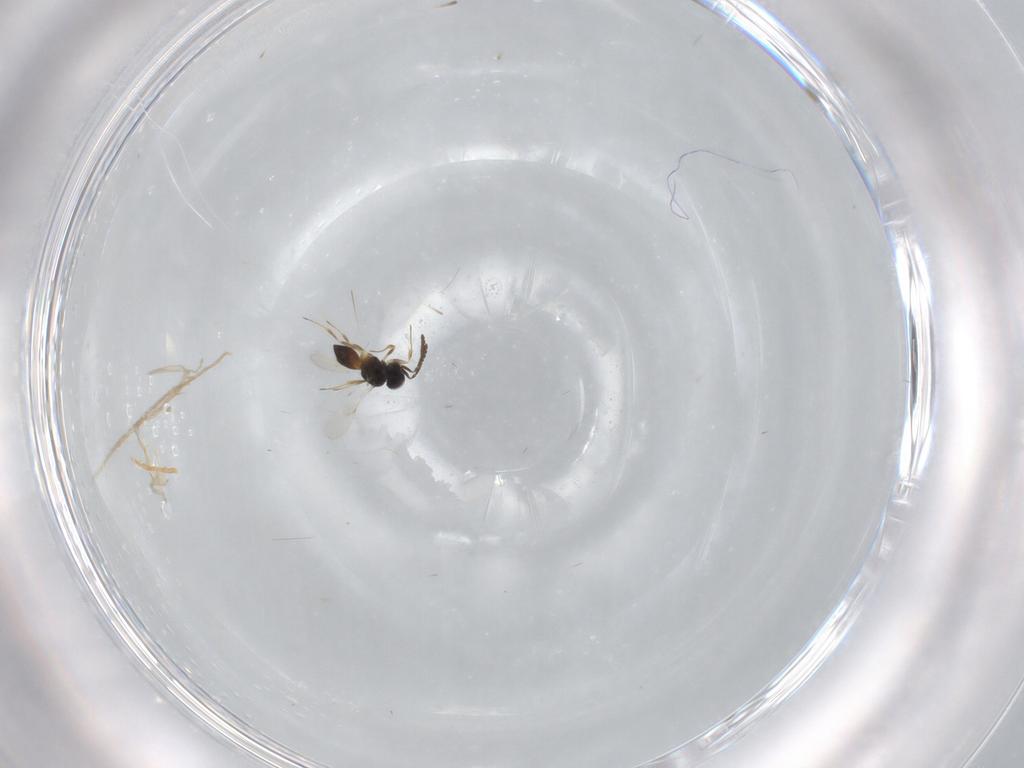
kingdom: Animalia
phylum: Arthropoda
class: Insecta
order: Hymenoptera
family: Scelionidae
